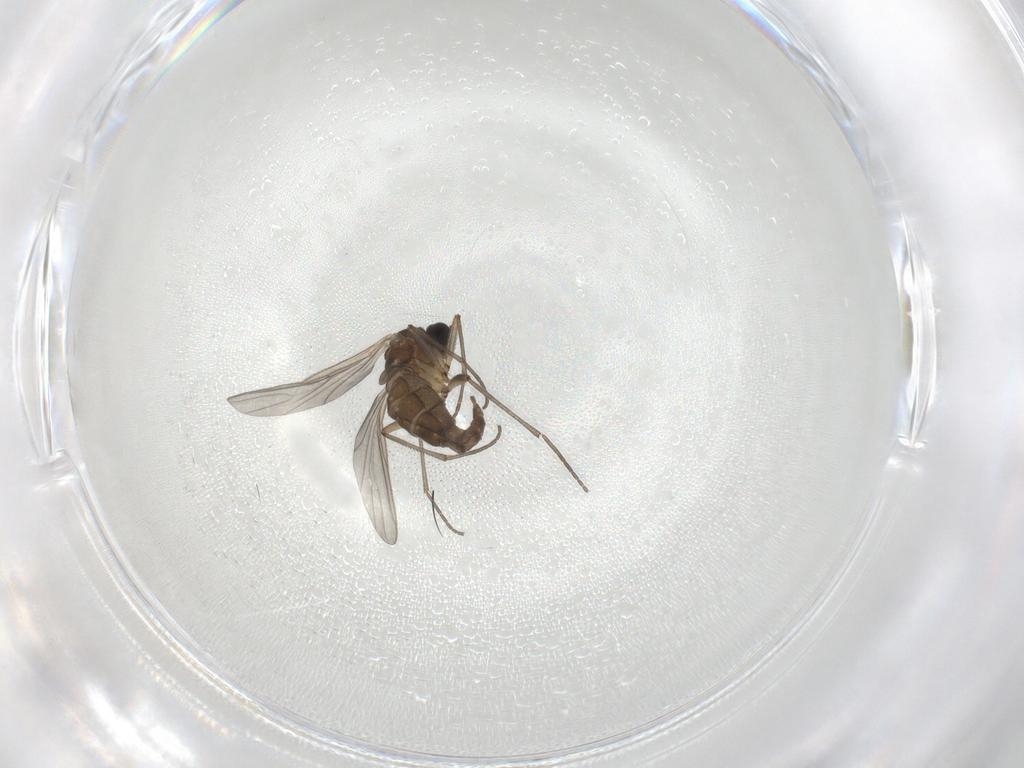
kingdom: Animalia
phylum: Arthropoda
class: Insecta
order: Diptera
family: Sciaridae
